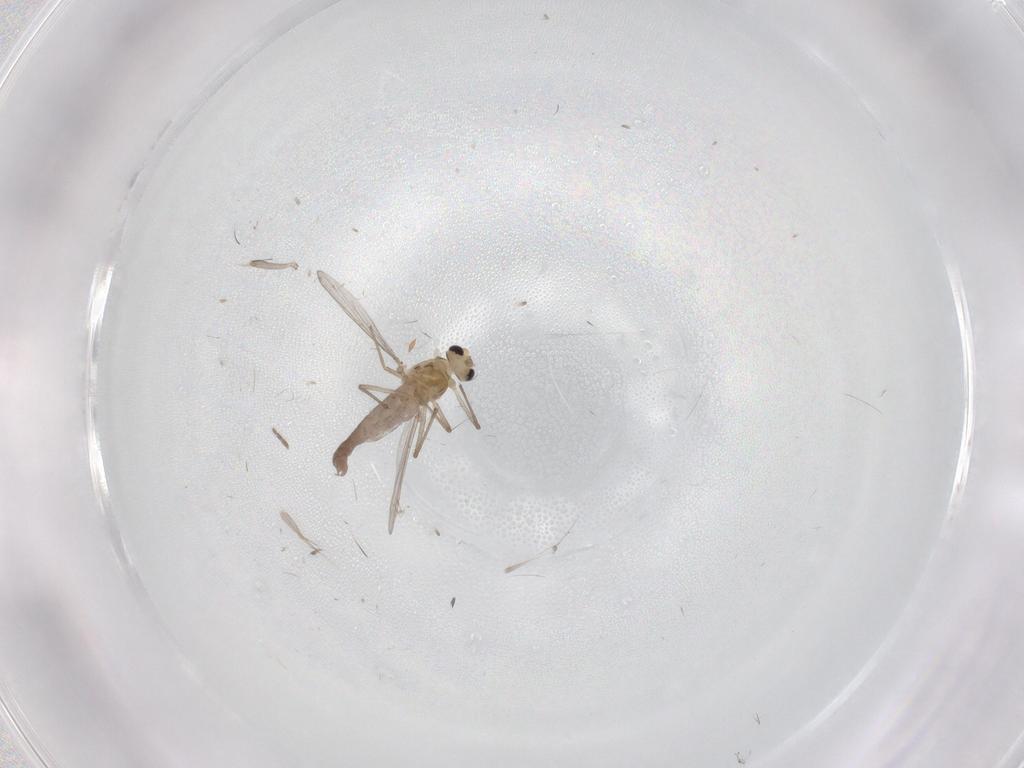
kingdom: Animalia
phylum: Arthropoda
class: Insecta
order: Diptera
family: Chironomidae
